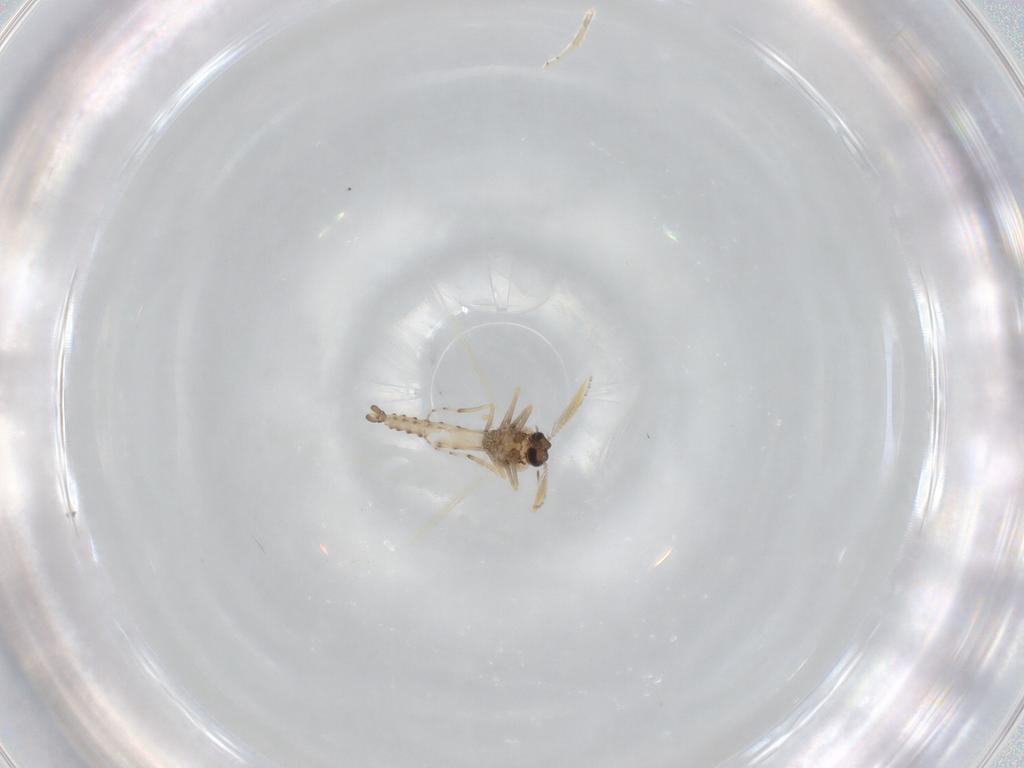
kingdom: Animalia
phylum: Arthropoda
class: Insecta
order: Diptera
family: Ceratopogonidae
